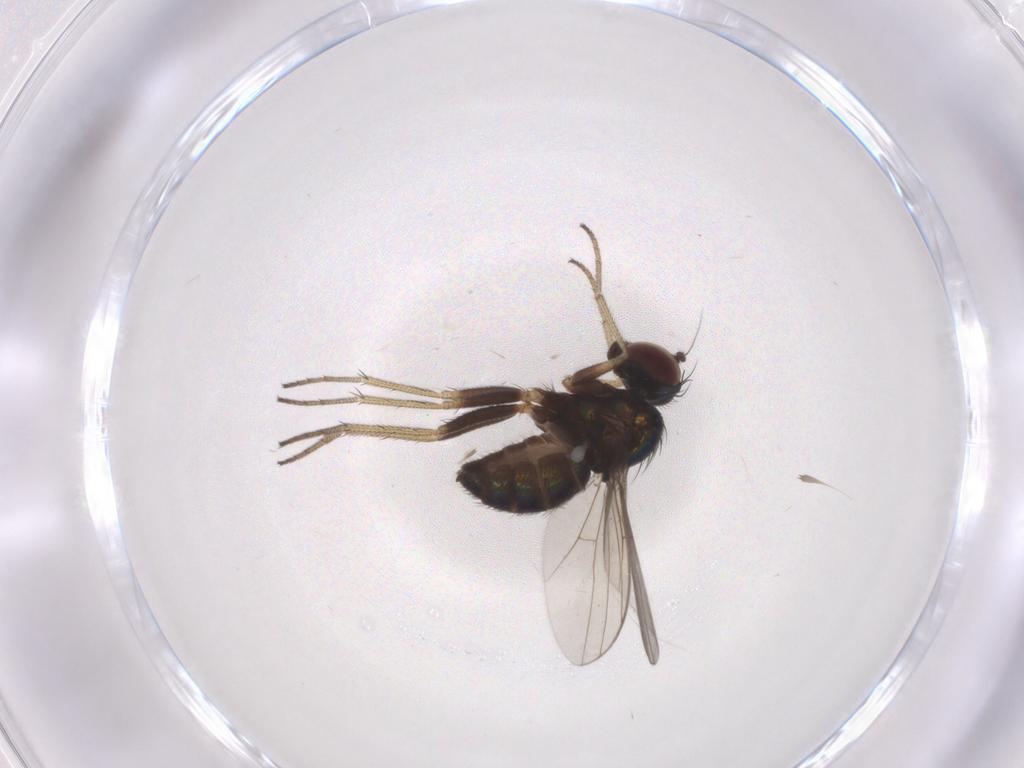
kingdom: Animalia
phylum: Arthropoda
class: Insecta
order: Diptera
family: Dolichopodidae
